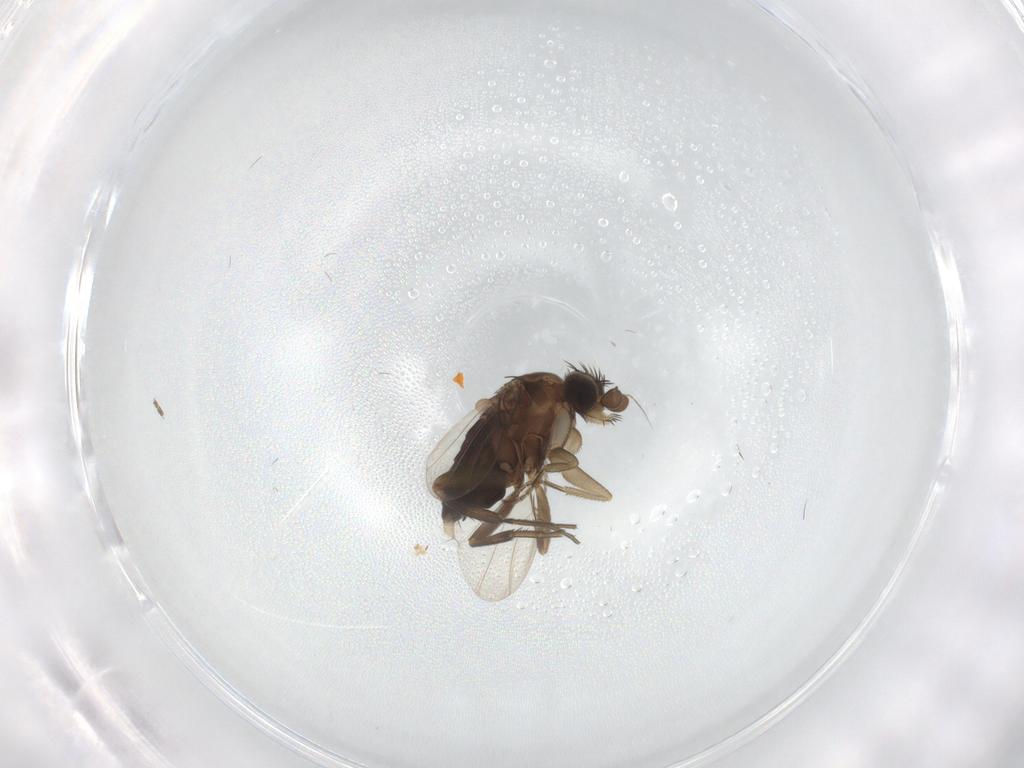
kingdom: Animalia
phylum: Arthropoda
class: Insecta
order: Diptera
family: Phoridae
